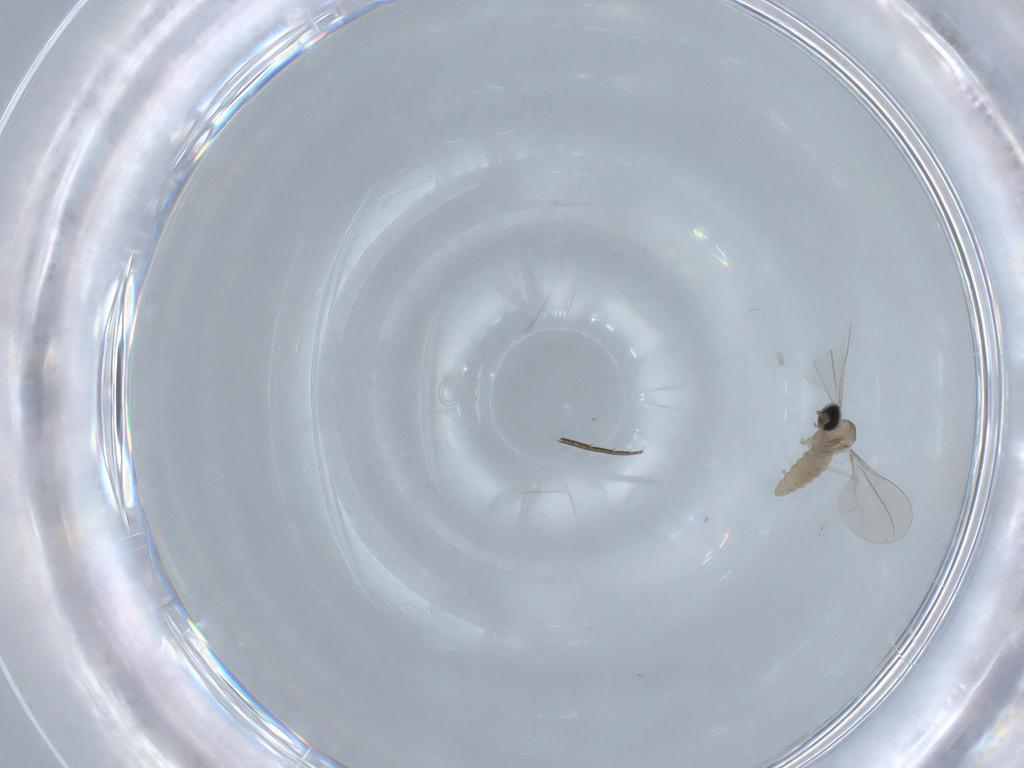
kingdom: Animalia
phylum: Arthropoda
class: Insecta
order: Diptera
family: Cecidomyiidae
